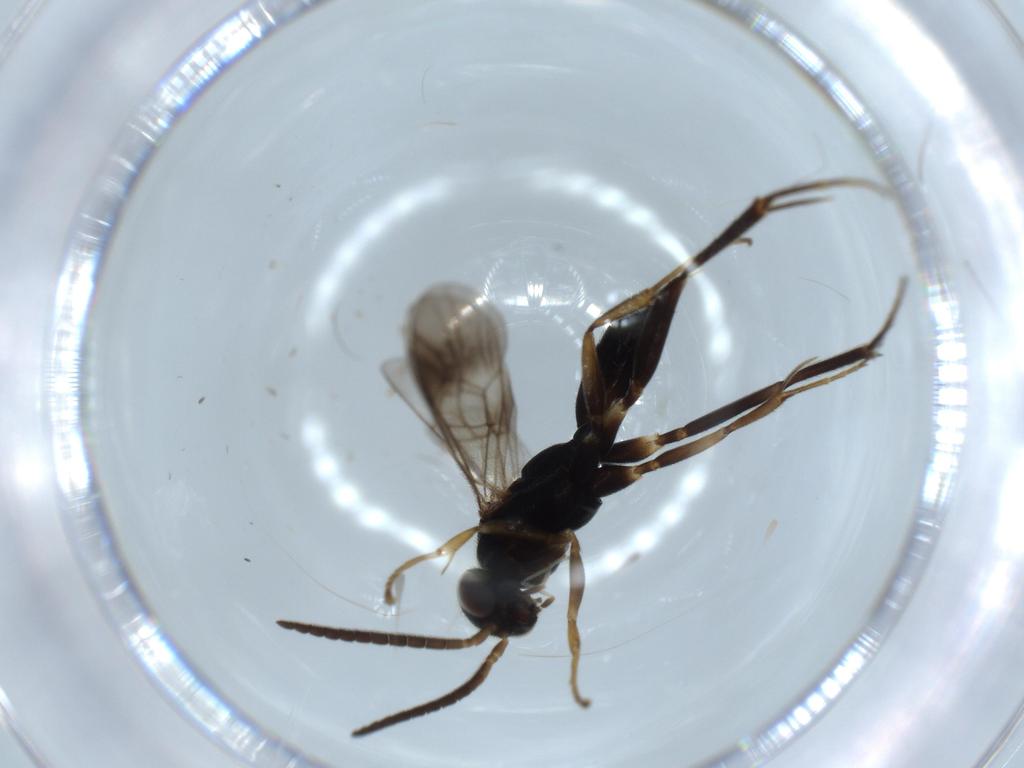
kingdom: Animalia
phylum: Arthropoda
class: Insecta
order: Hymenoptera
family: Pompilidae
